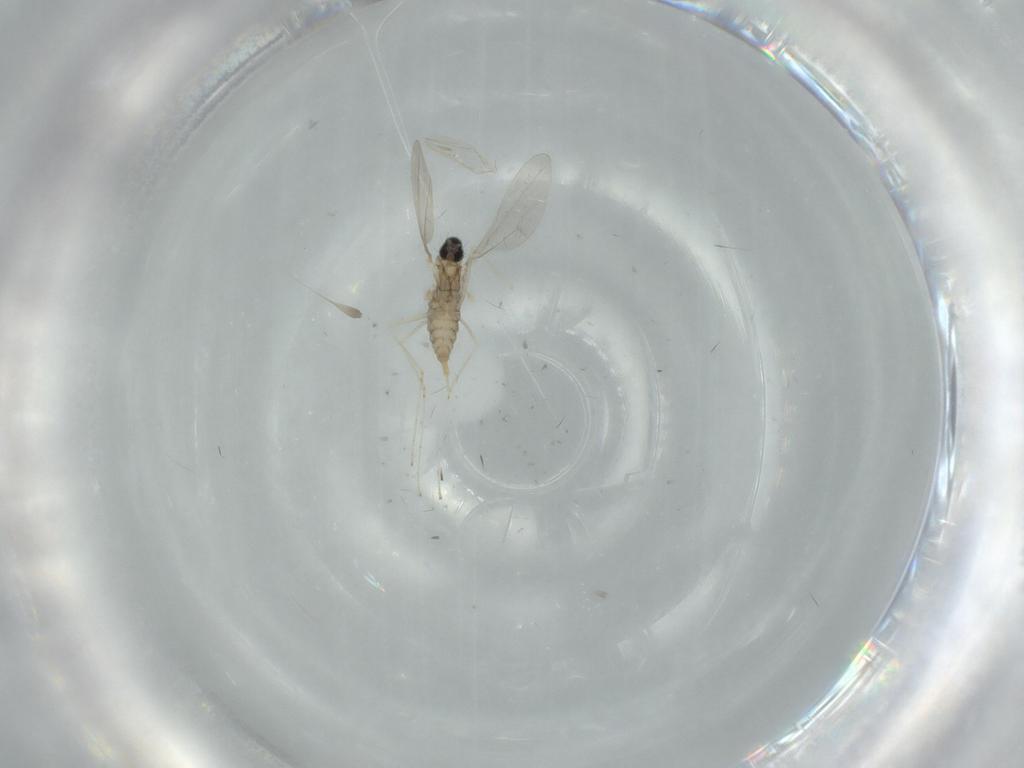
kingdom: Animalia
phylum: Arthropoda
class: Insecta
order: Diptera
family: Cecidomyiidae
